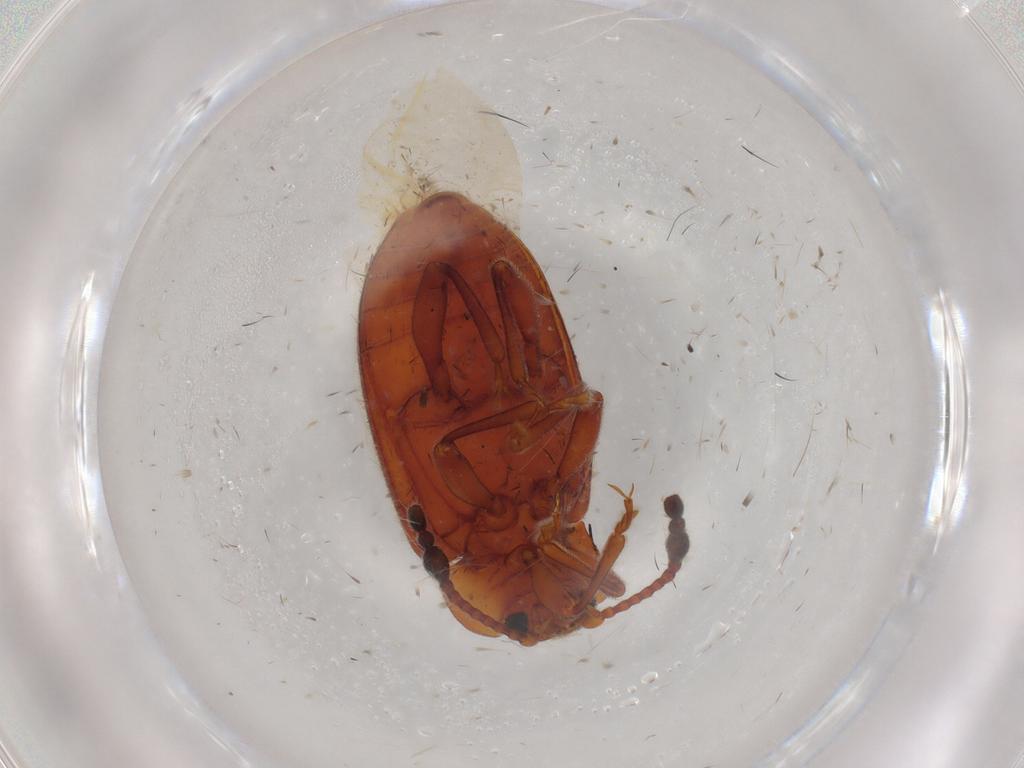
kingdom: Animalia
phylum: Arthropoda
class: Insecta
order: Coleoptera
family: Endomychidae
